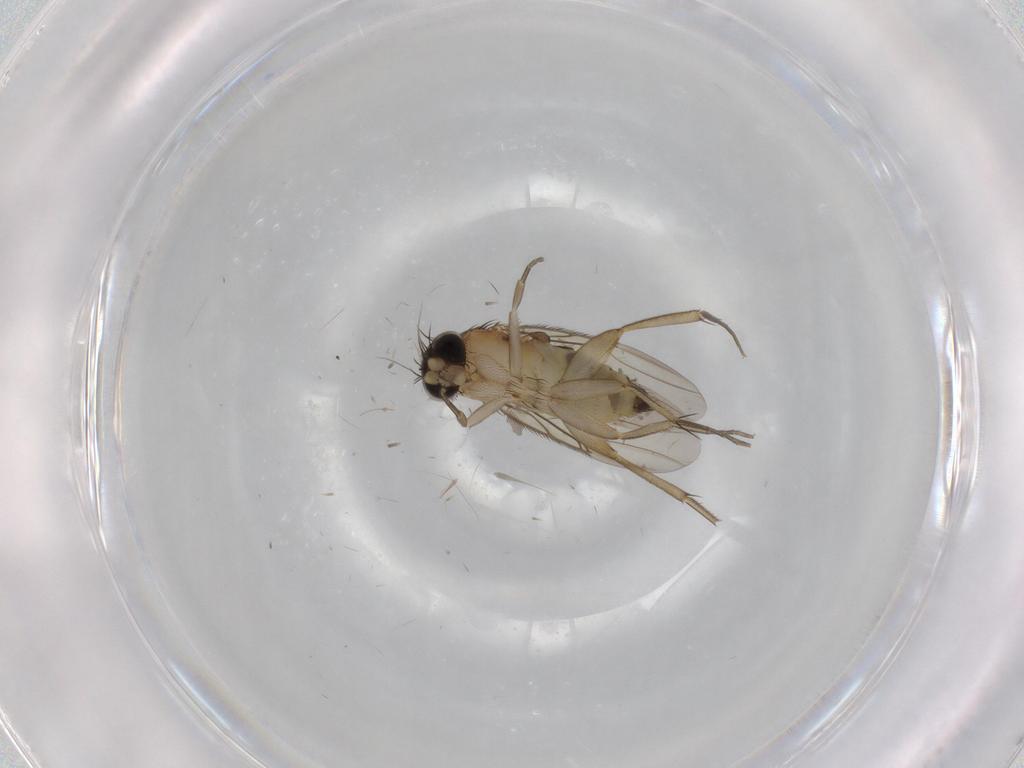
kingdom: Animalia
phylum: Arthropoda
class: Insecta
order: Diptera
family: Phoridae
